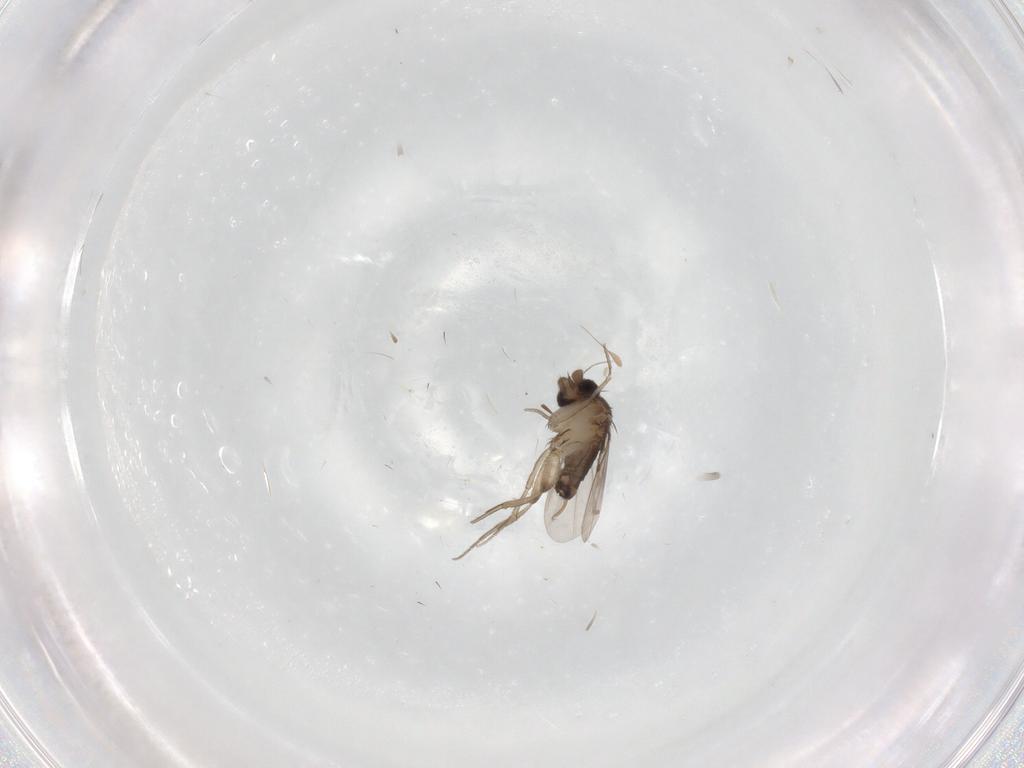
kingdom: Animalia
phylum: Arthropoda
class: Insecta
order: Diptera
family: Phoridae
